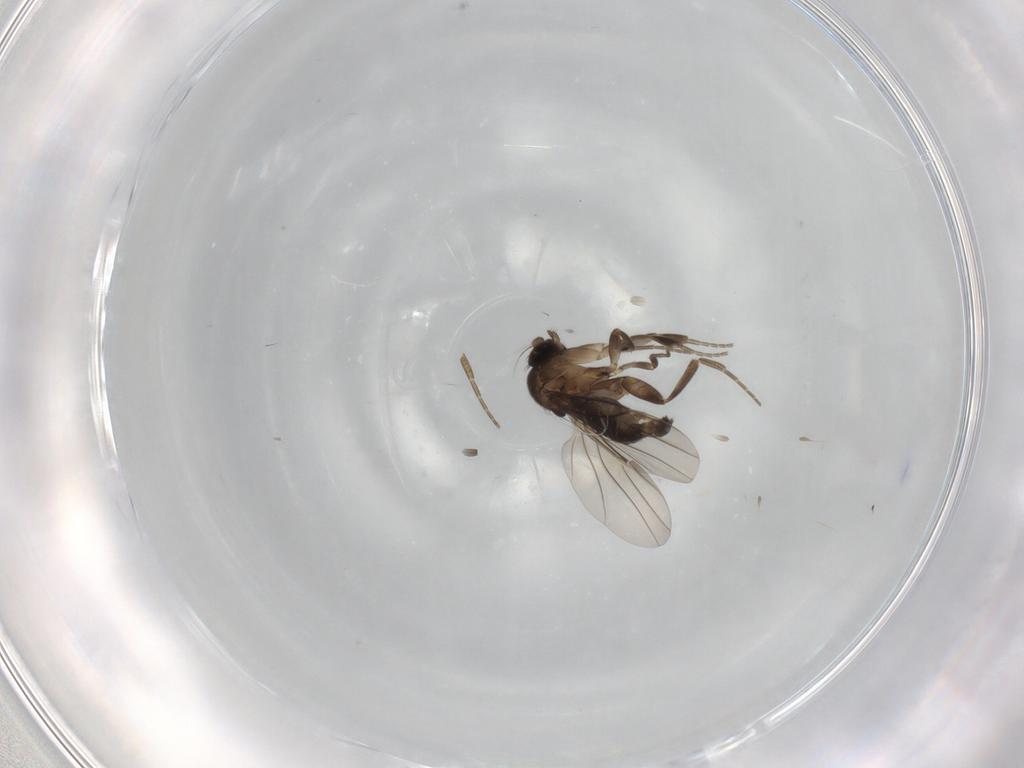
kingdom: Animalia
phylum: Arthropoda
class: Insecta
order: Diptera
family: Phoridae
